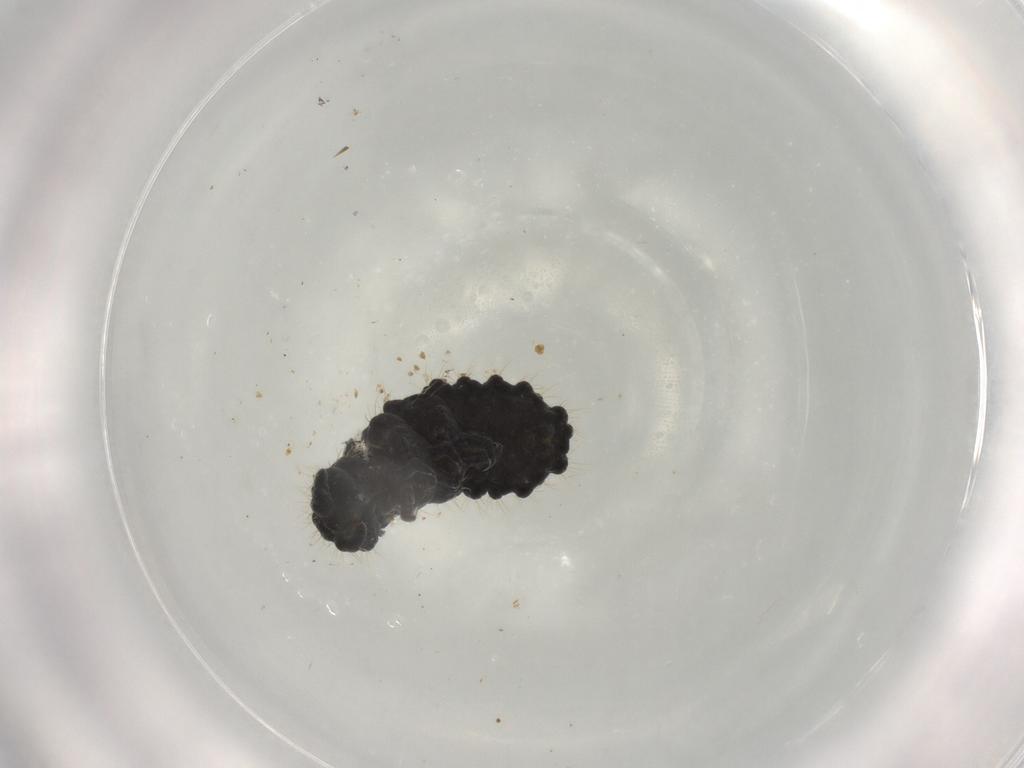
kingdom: Animalia
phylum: Arthropoda
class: Collembola
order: Poduromorpha
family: Neanuridae
